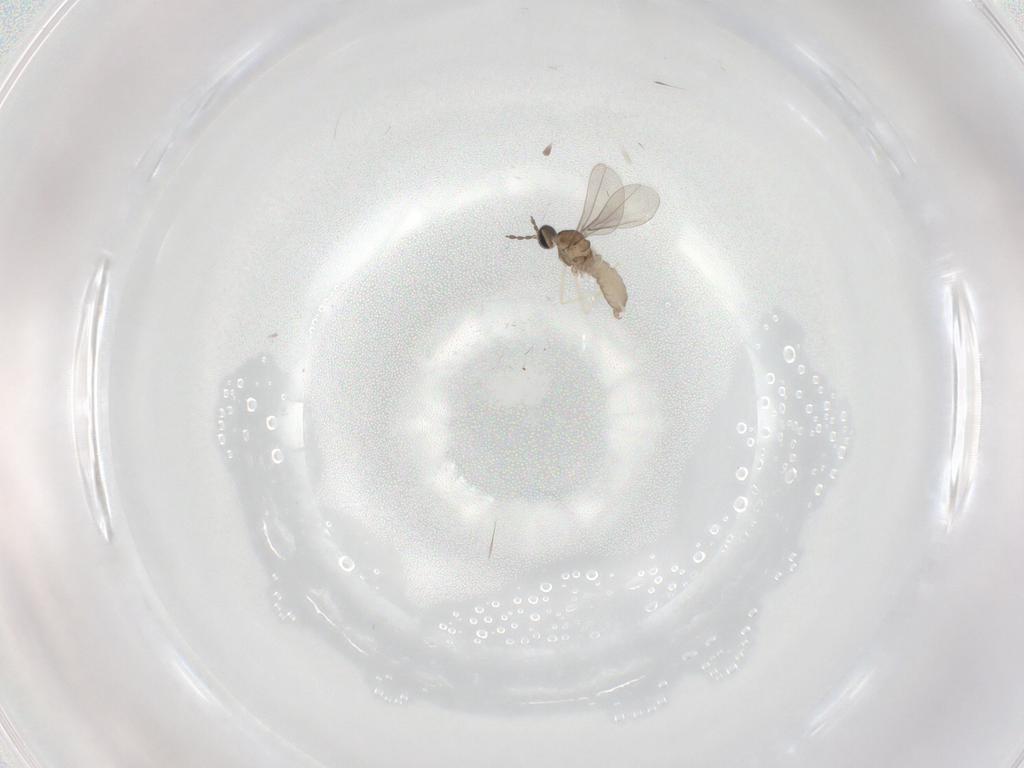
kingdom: Animalia
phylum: Arthropoda
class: Insecta
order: Diptera
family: Cecidomyiidae
